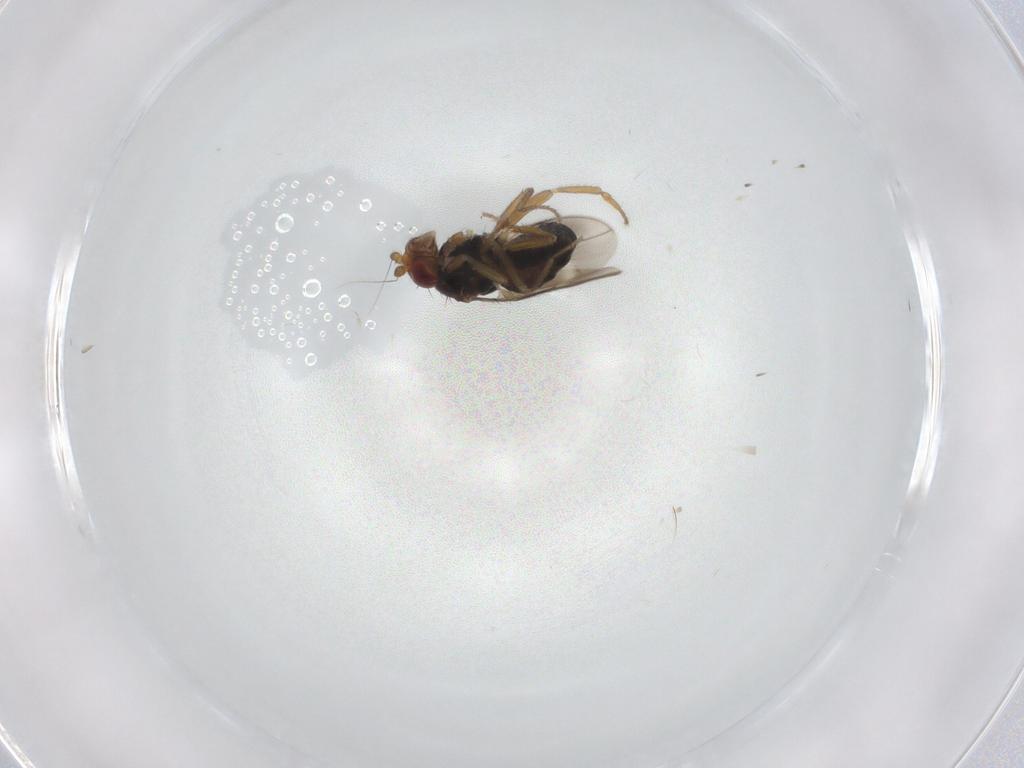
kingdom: Animalia
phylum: Arthropoda
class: Insecta
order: Diptera
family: Sphaeroceridae
